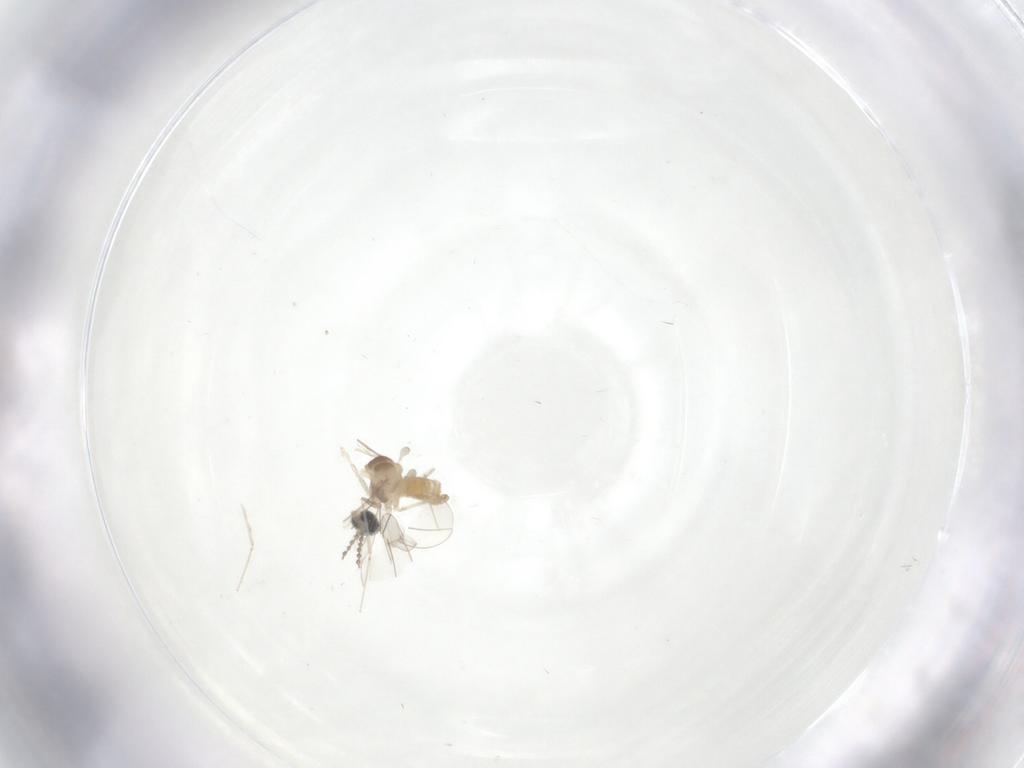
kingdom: Animalia
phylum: Arthropoda
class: Insecta
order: Diptera
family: Cecidomyiidae
